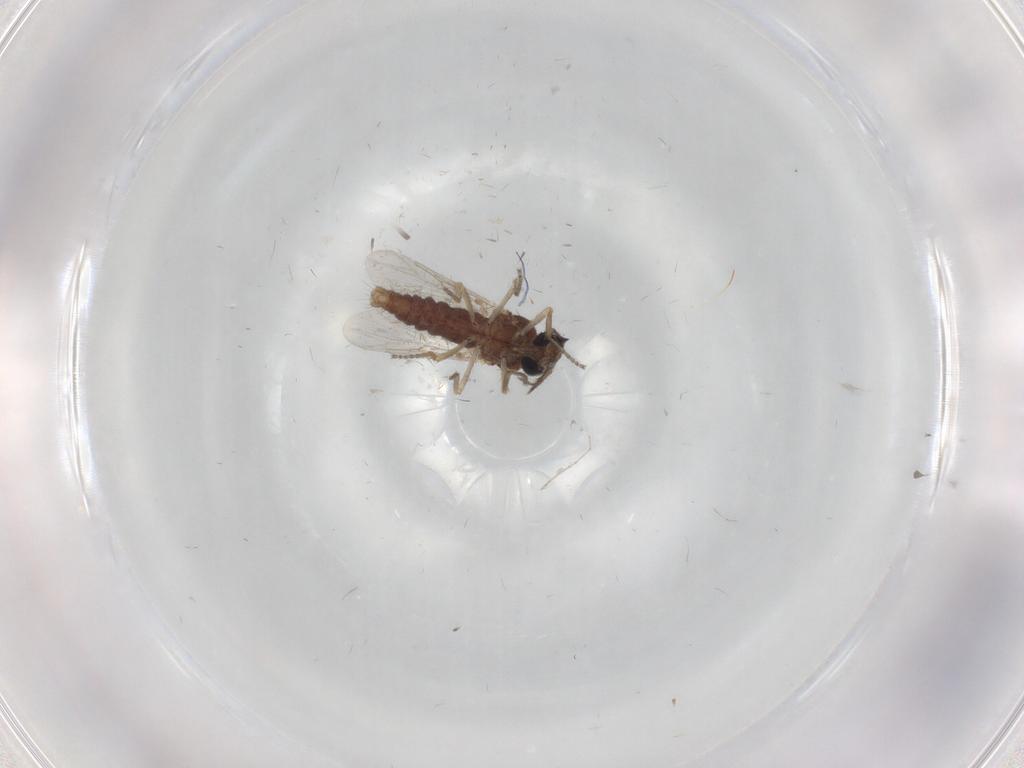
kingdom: Animalia
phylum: Arthropoda
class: Insecta
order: Diptera
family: Ceratopogonidae
